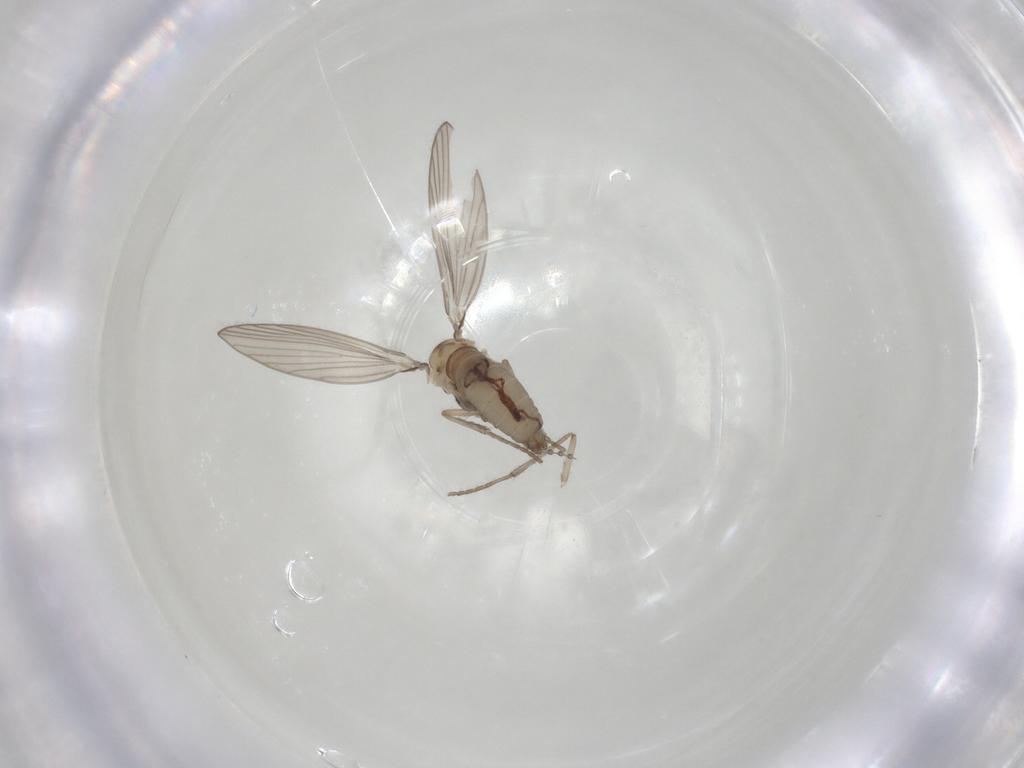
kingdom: Animalia
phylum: Arthropoda
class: Insecta
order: Diptera
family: Psychodidae
